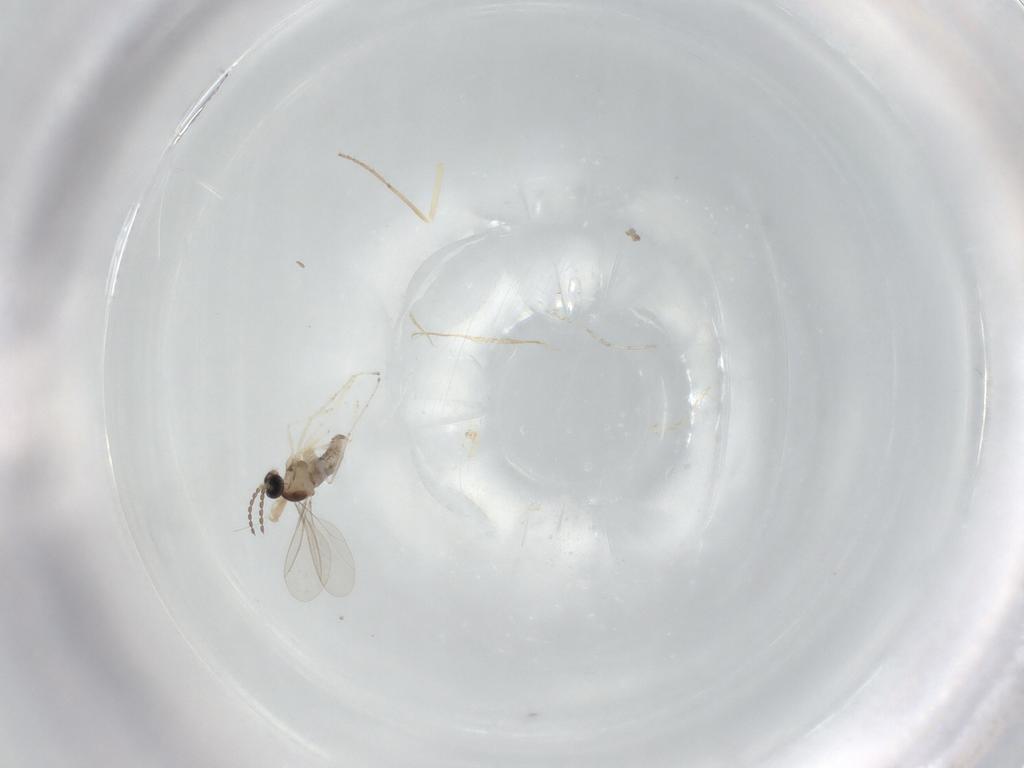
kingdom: Animalia
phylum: Arthropoda
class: Insecta
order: Diptera
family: Cecidomyiidae
